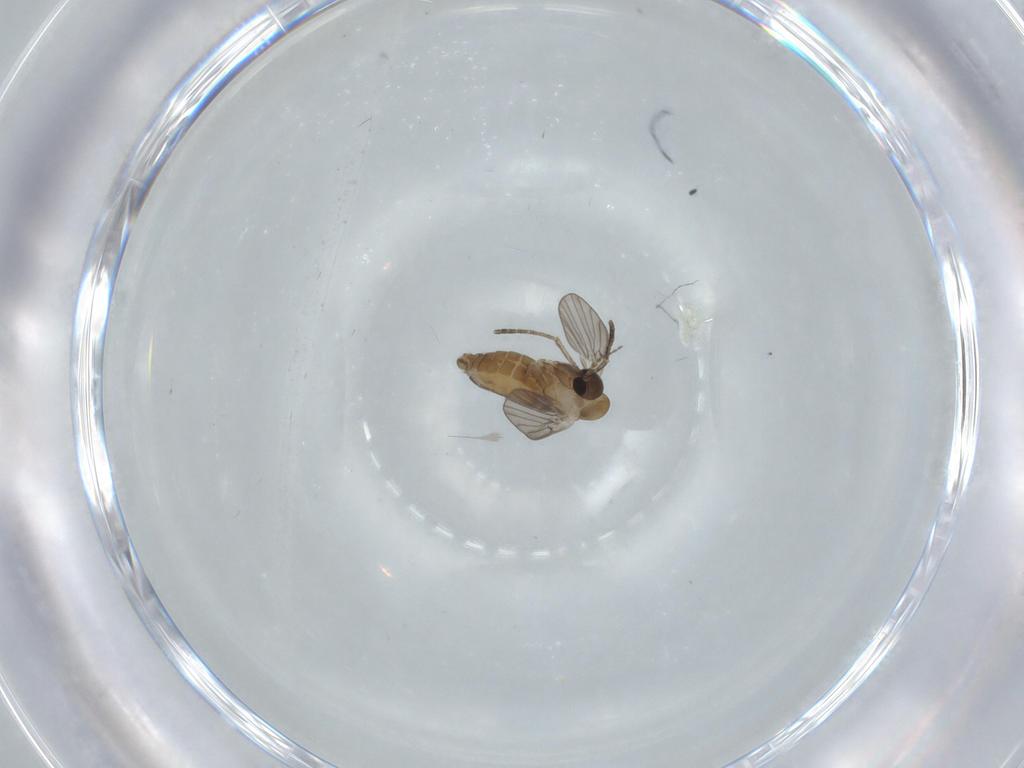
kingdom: Animalia
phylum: Arthropoda
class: Insecta
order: Diptera
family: Psychodidae
